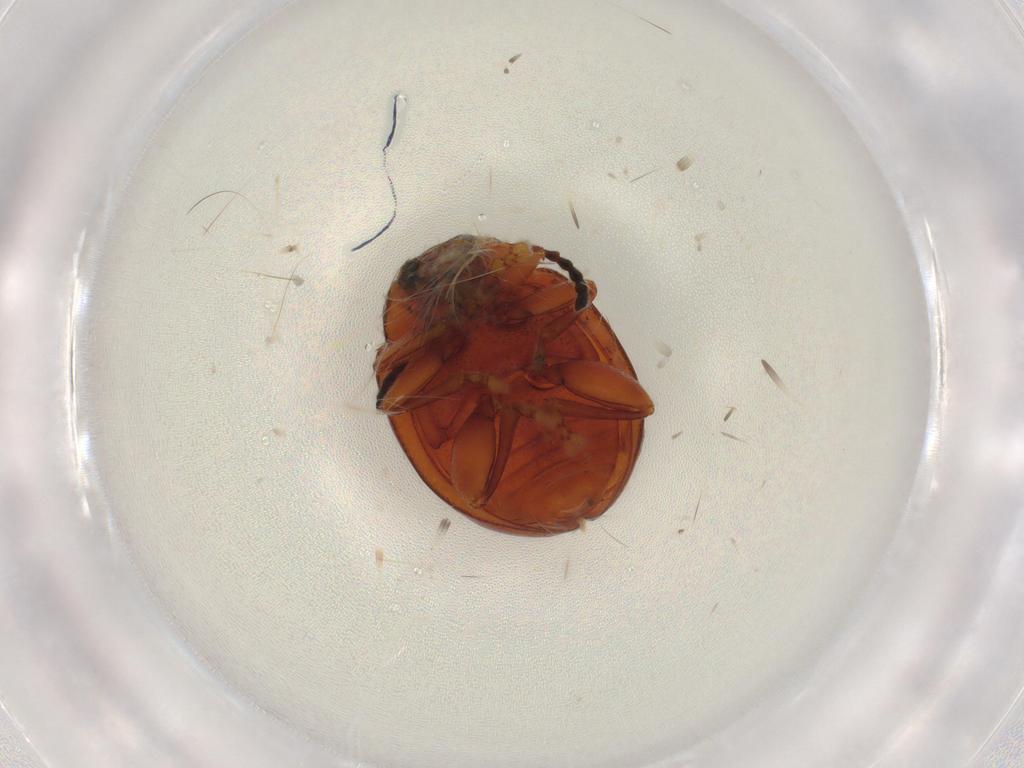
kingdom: Animalia
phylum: Arthropoda
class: Insecta
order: Coleoptera
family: Chrysomelidae
